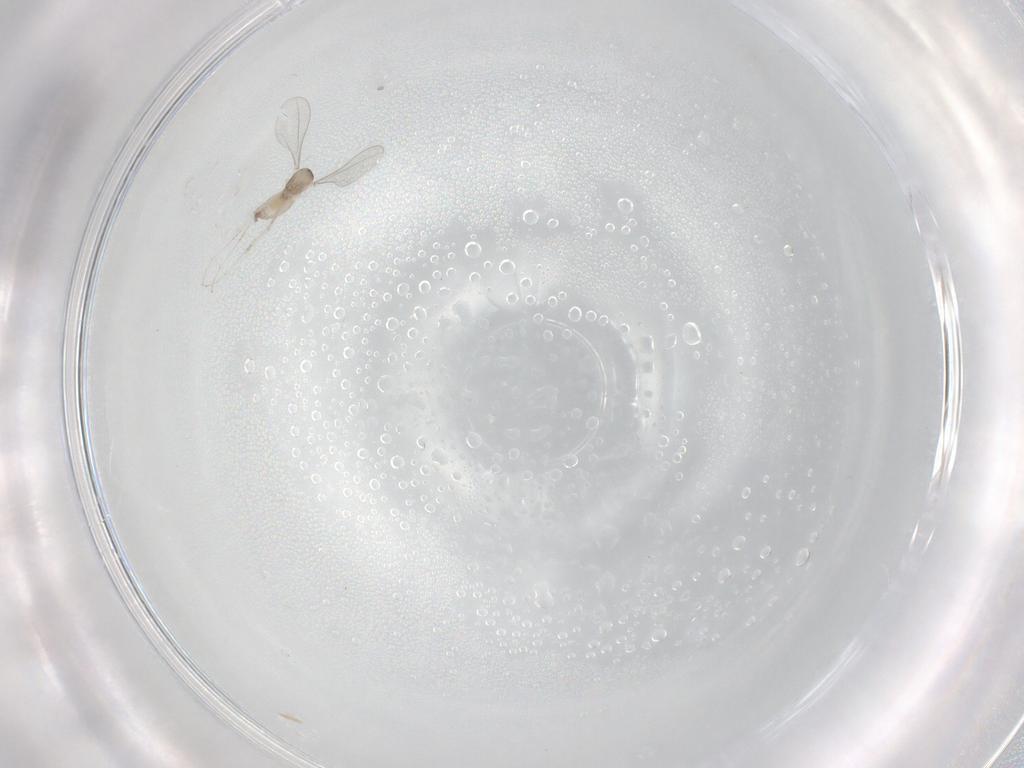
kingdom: Animalia
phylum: Arthropoda
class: Insecta
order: Diptera
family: Cecidomyiidae
